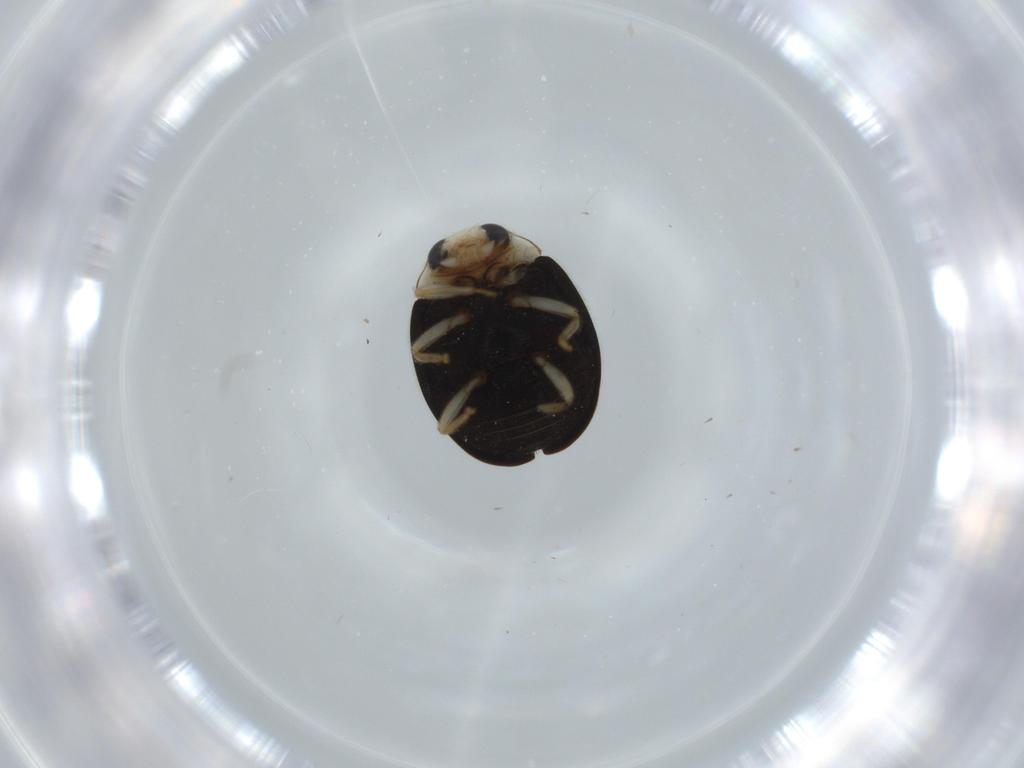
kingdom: Animalia
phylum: Arthropoda
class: Insecta
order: Coleoptera
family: Coccinellidae
